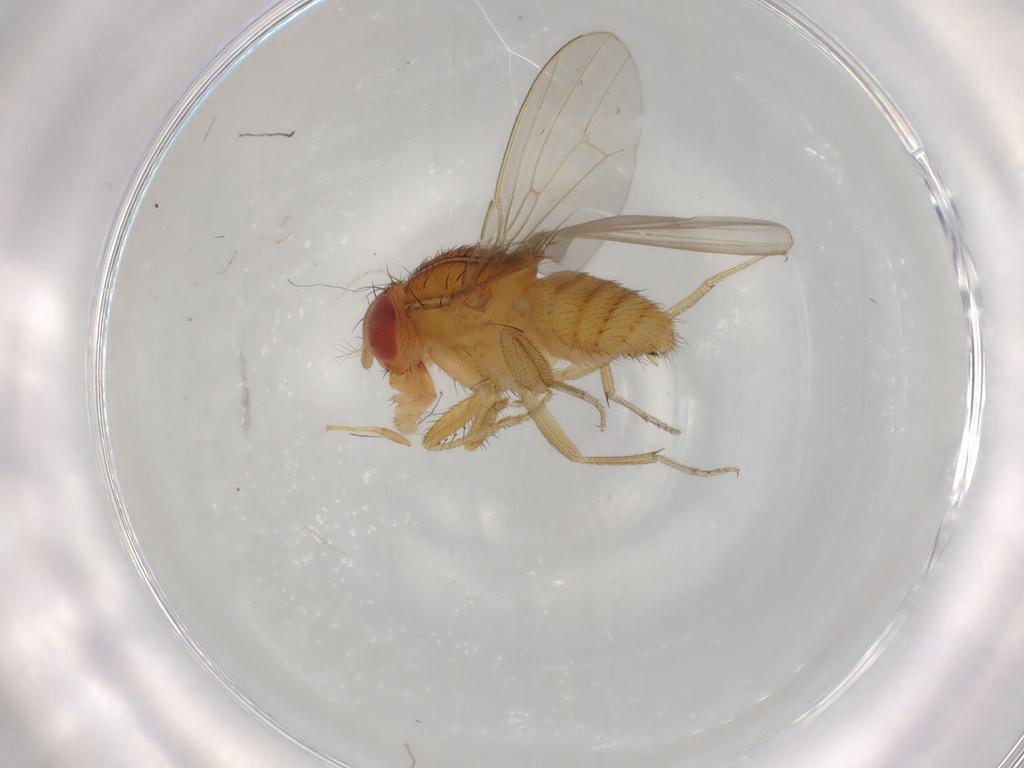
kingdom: Animalia
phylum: Arthropoda
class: Insecta
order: Diptera
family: Drosophilidae
